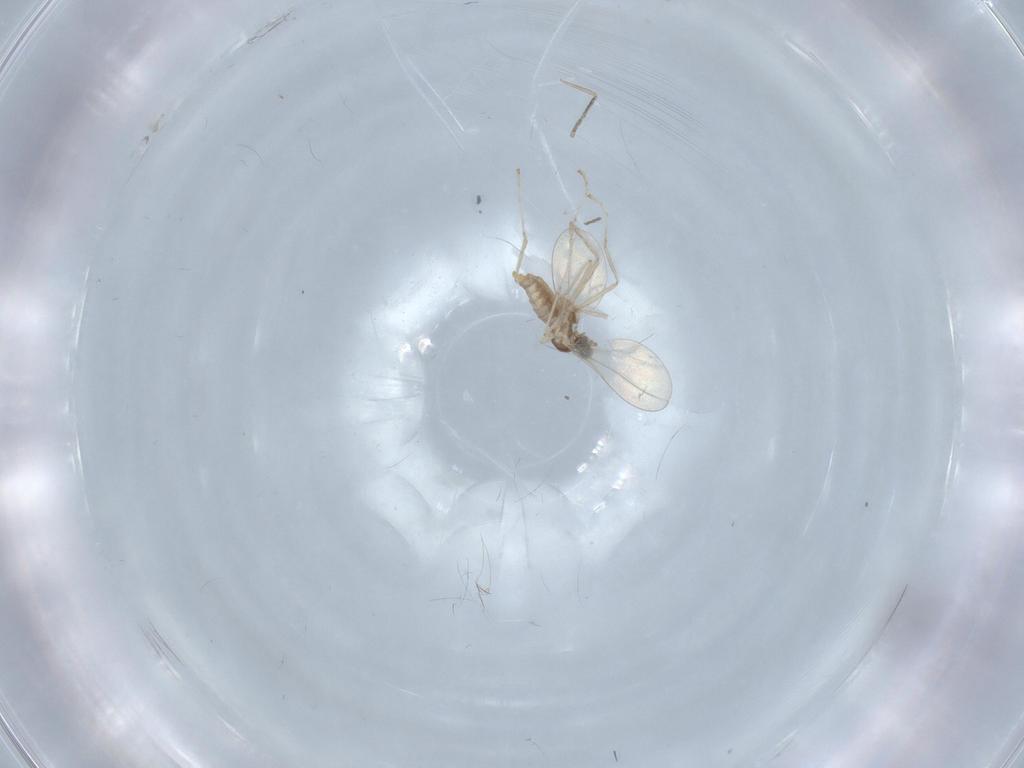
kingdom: Animalia
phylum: Arthropoda
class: Insecta
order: Diptera
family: Cecidomyiidae
